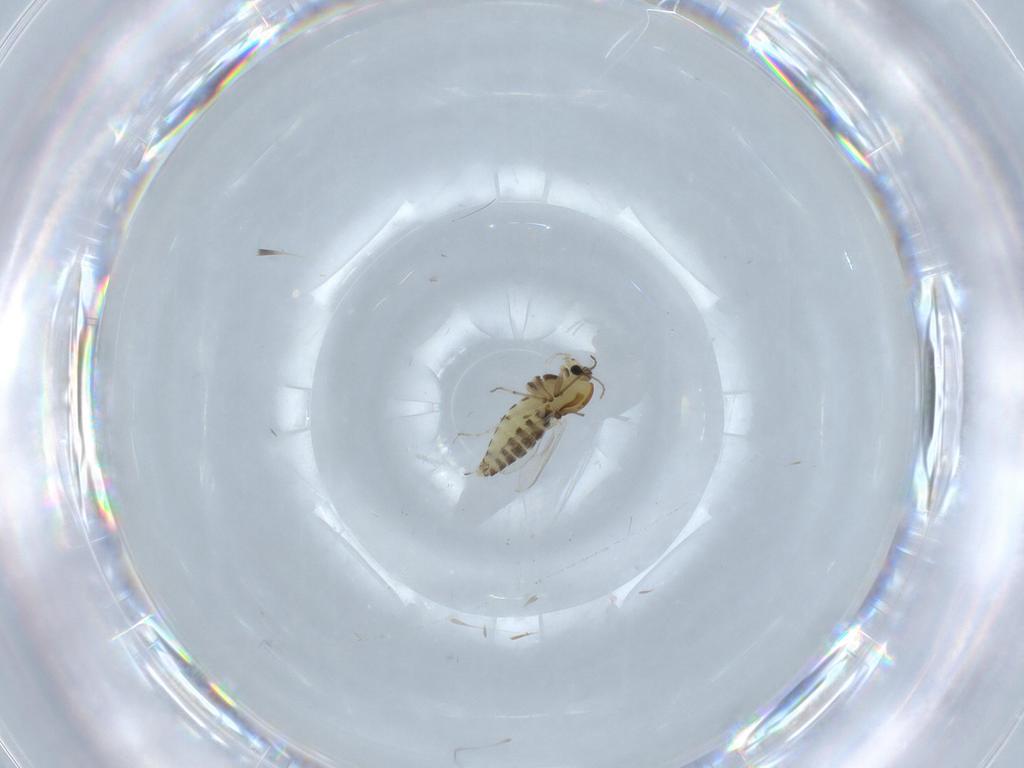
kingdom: Animalia
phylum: Arthropoda
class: Insecta
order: Diptera
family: Chironomidae
